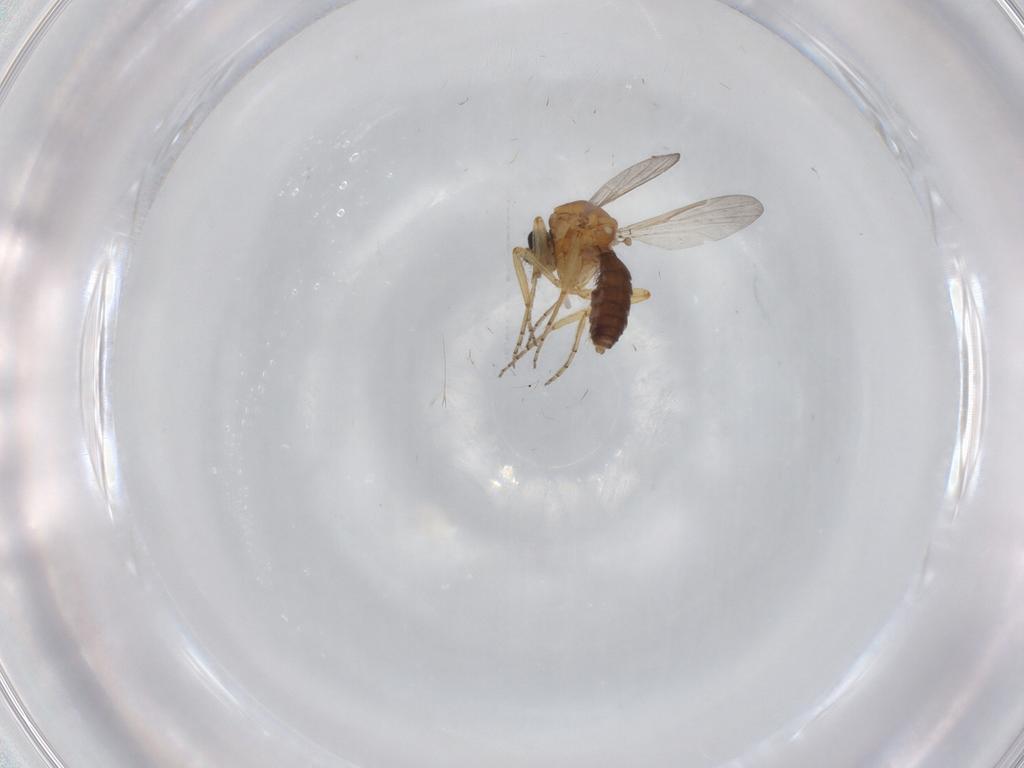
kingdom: Animalia
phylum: Arthropoda
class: Insecta
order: Diptera
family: Ceratopogonidae
